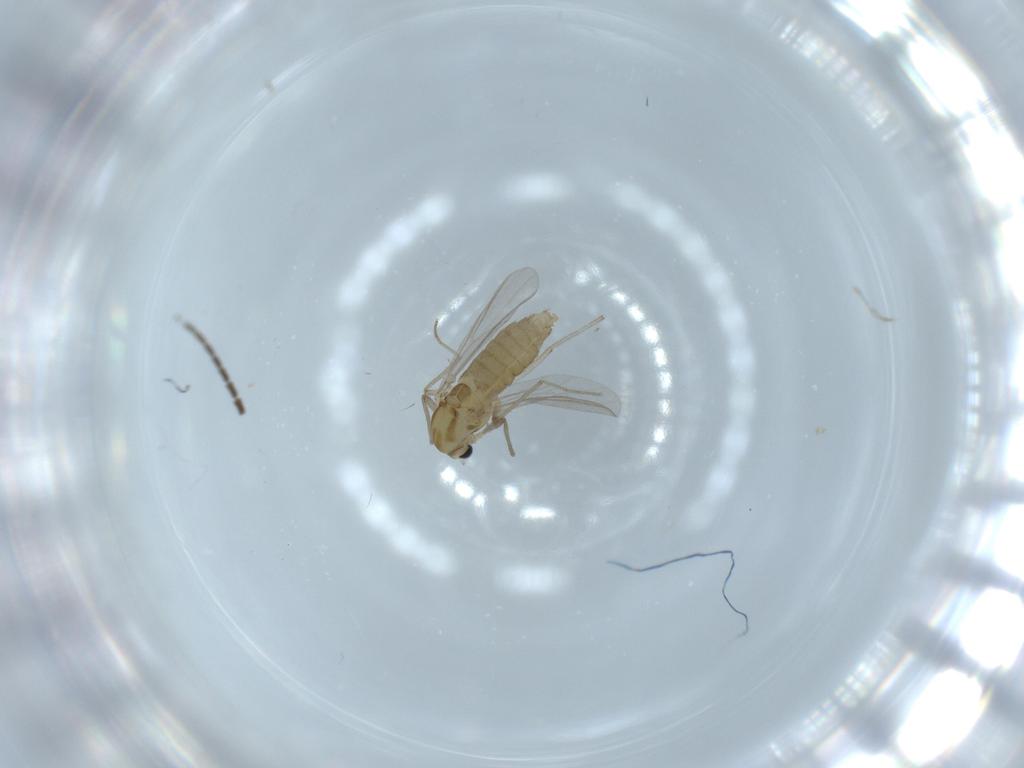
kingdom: Animalia
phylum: Arthropoda
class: Insecta
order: Diptera
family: Chironomidae
